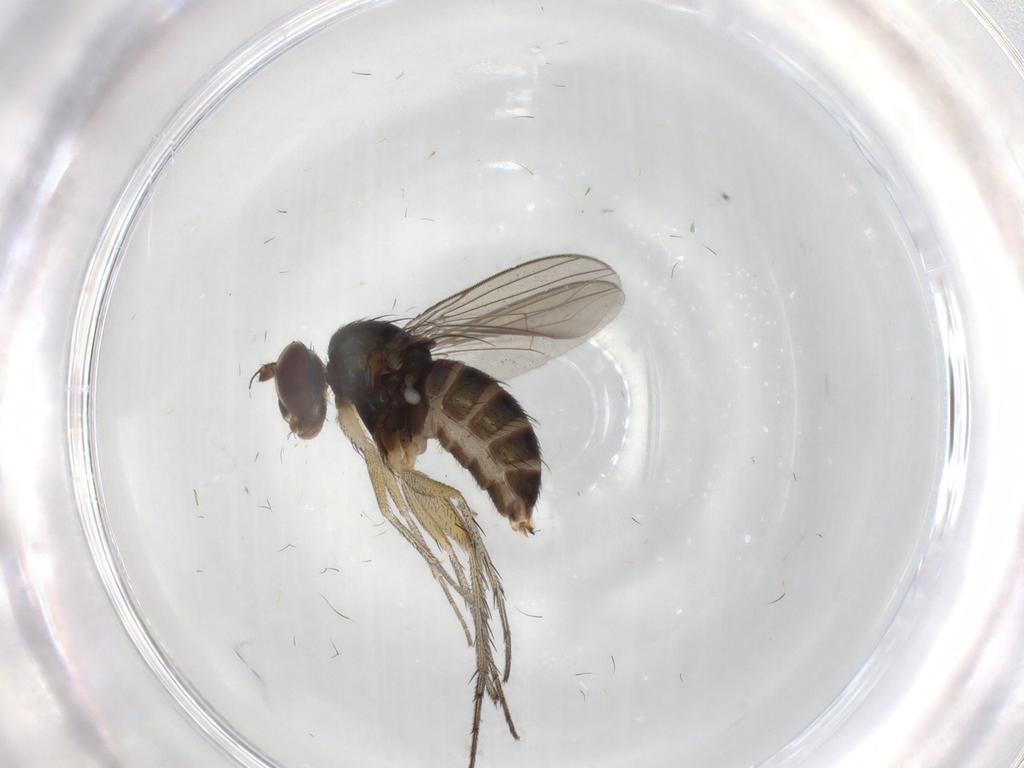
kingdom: Animalia
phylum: Arthropoda
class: Insecta
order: Diptera
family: Dolichopodidae
